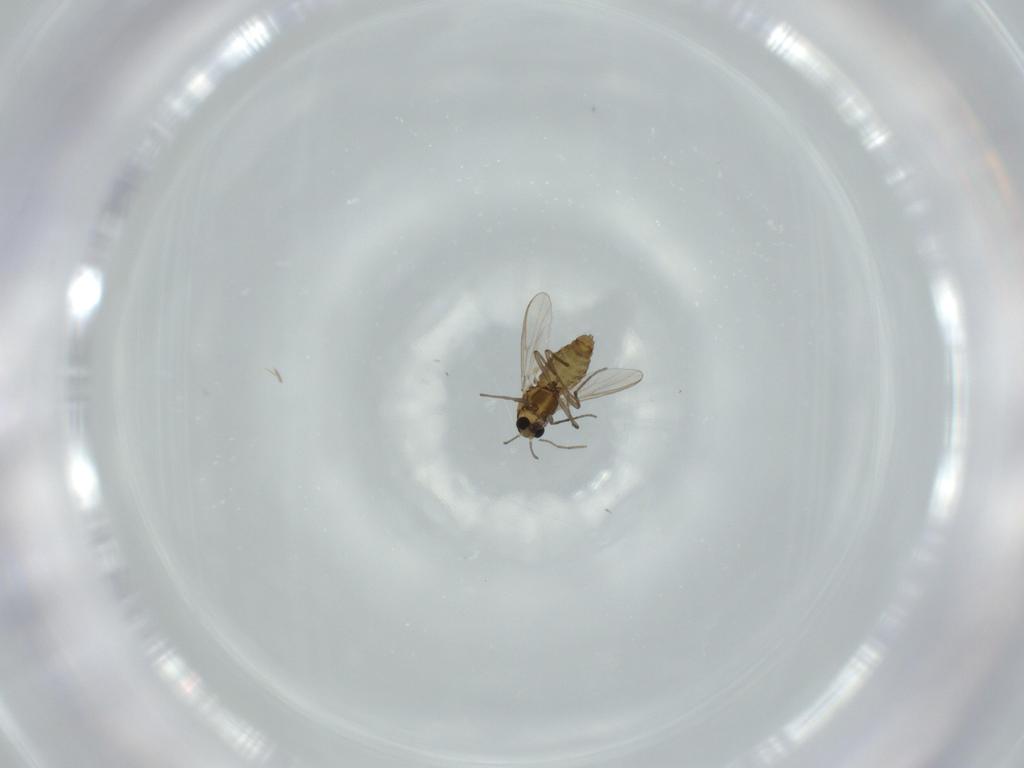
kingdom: Animalia
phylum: Arthropoda
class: Insecta
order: Diptera
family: Chironomidae
